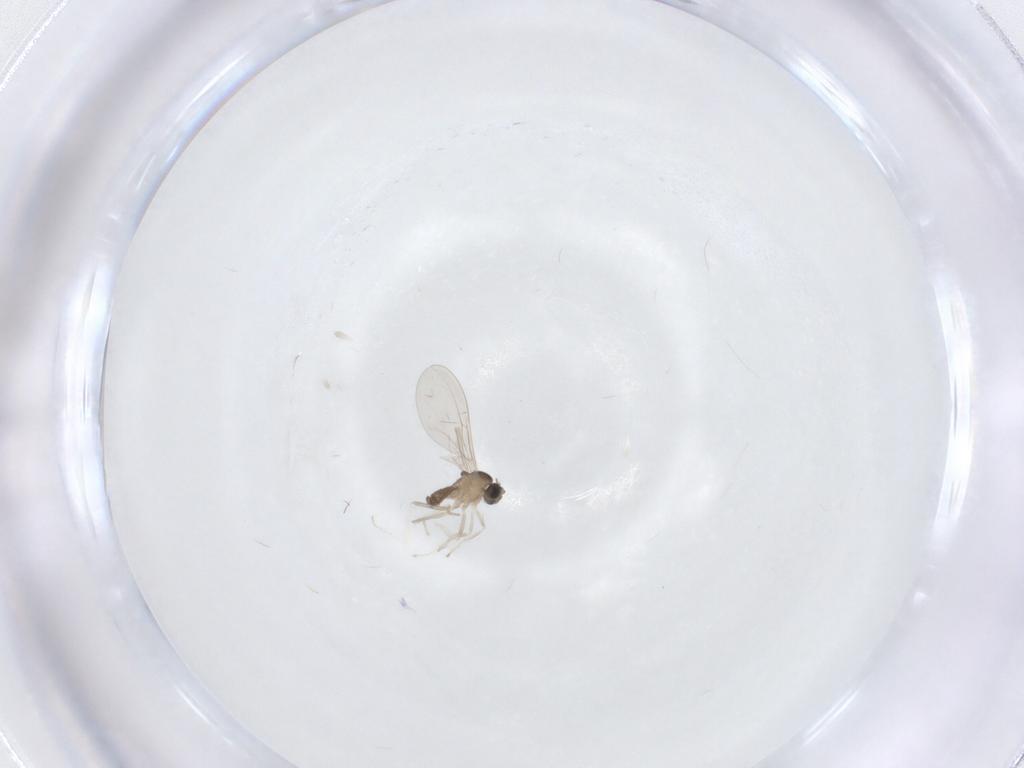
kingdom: Animalia
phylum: Arthropoda
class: Insecta
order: Diptera
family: Cecidomyiidae
